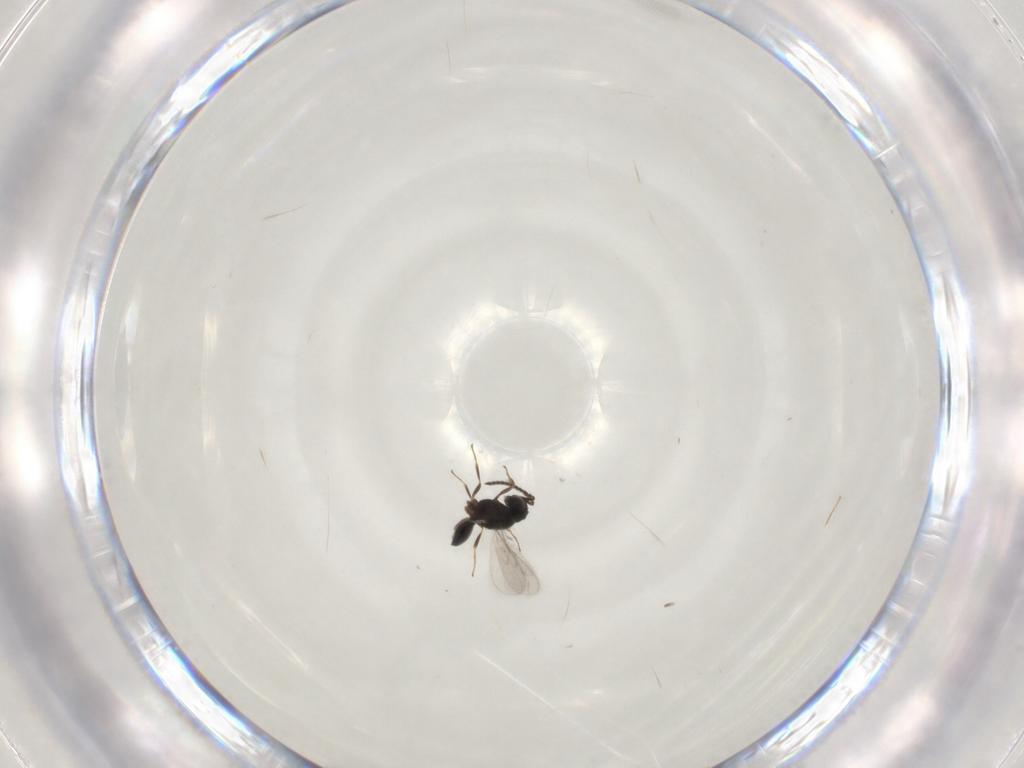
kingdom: Animalia
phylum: Arthropoda
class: Insecta
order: Hymenoptera
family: Scelionidae
